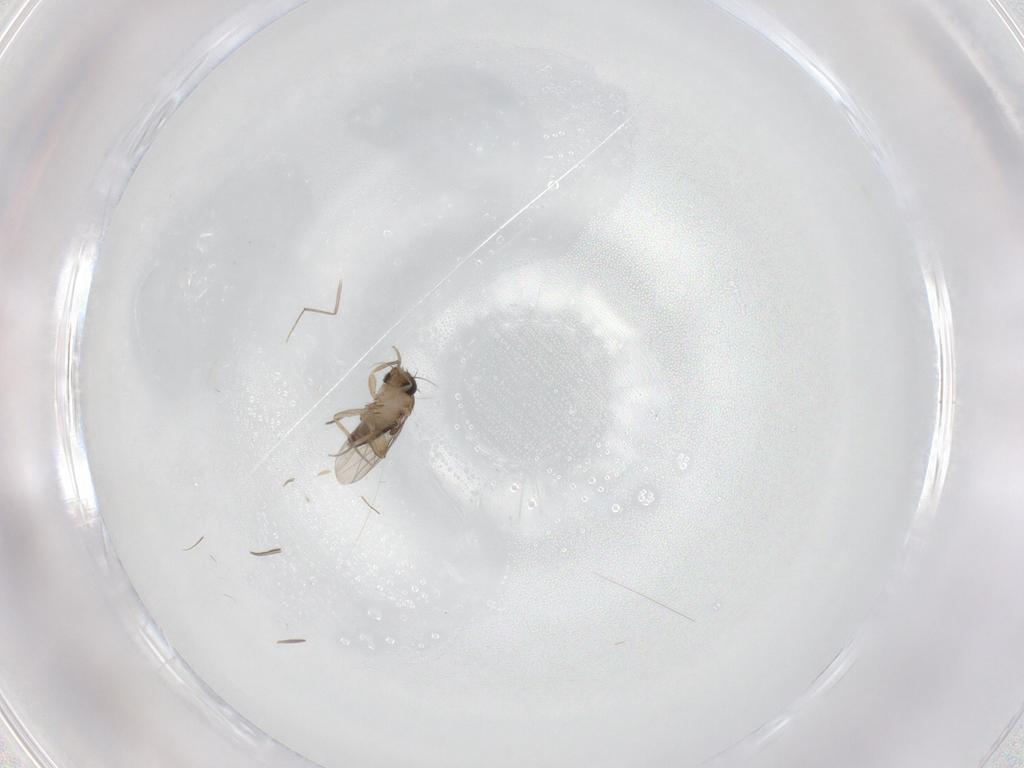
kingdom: Animalia
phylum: Arthropoda
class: Insecta
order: Diptera
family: Phoridae
